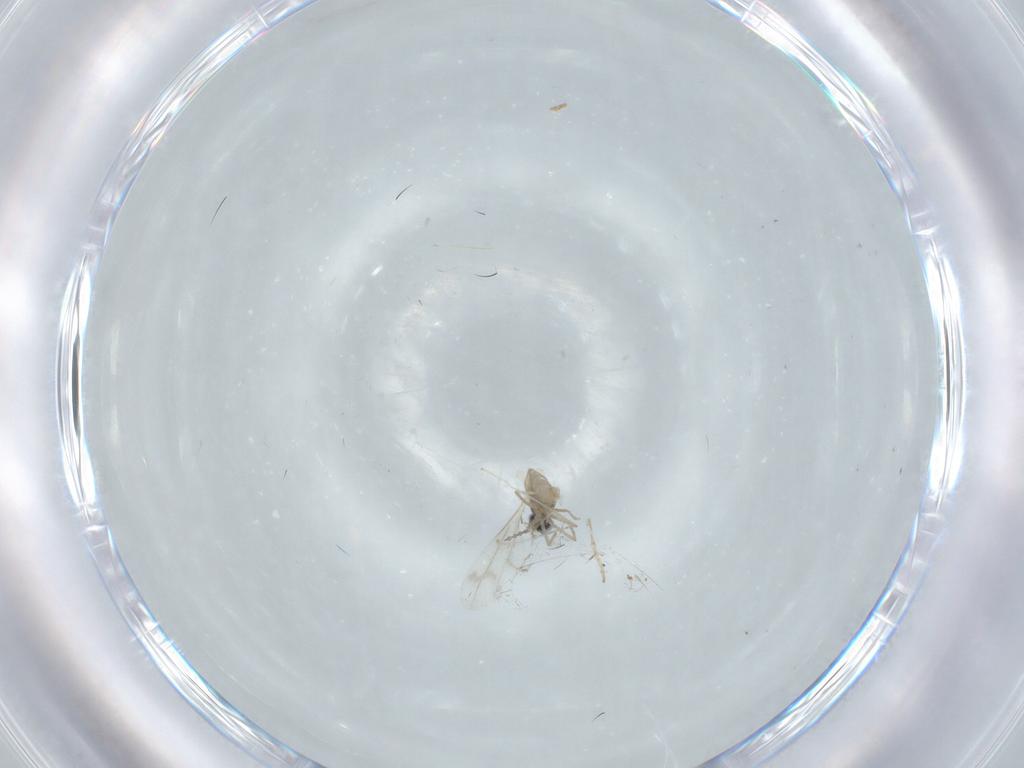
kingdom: Animalia
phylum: Arthropoda
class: Insecta
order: Diptera
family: Cecidomyiidae
